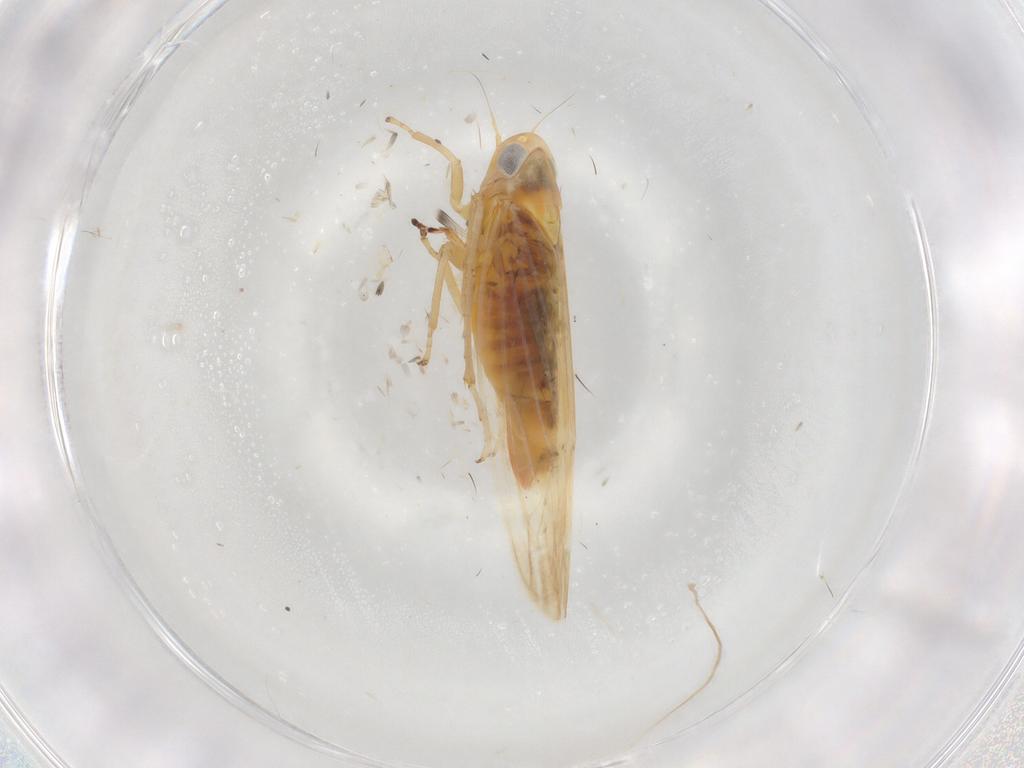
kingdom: Animalia
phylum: Arthropoda
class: Insecta
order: Hemiptera
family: Cicadellidae
